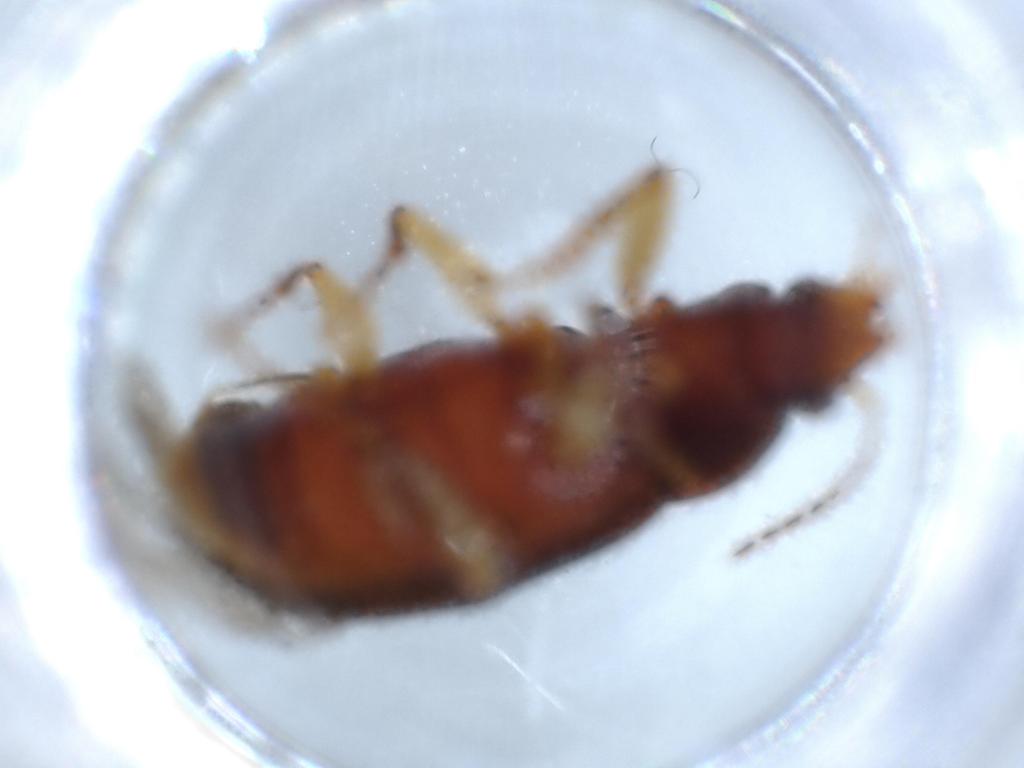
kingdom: Animalia
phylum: Arthropoda
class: Insecta
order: Coleoptera
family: Carabidae
